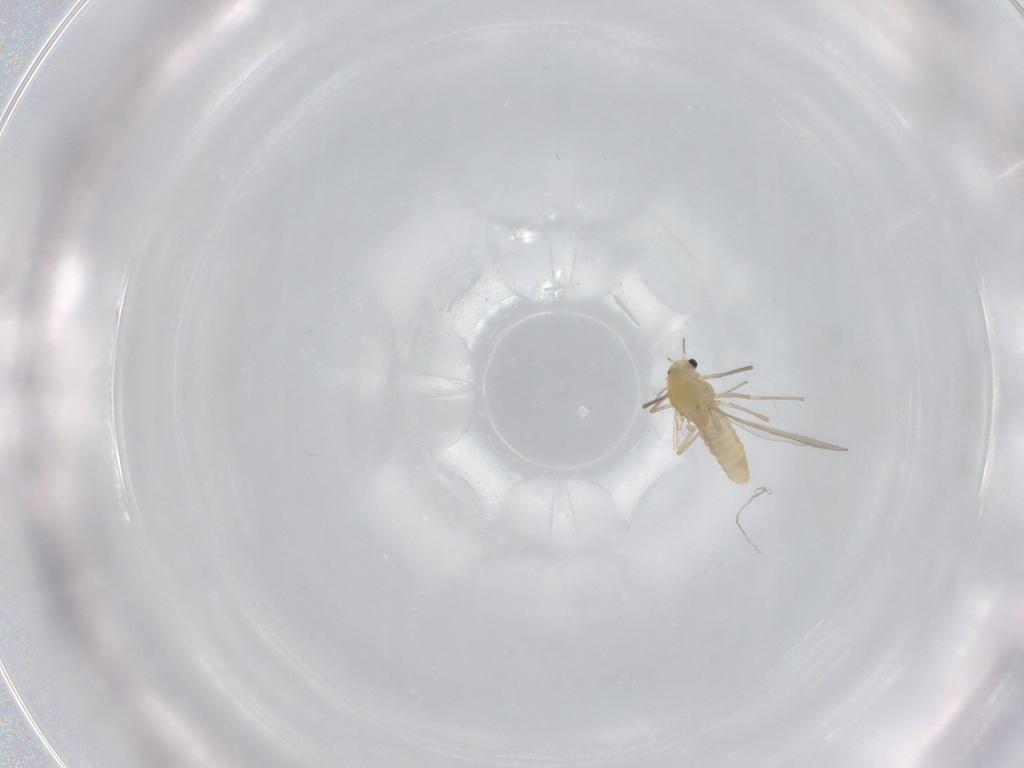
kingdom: Animalia
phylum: Arthropoda
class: Insecta
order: Diptera
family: Chironomidae
